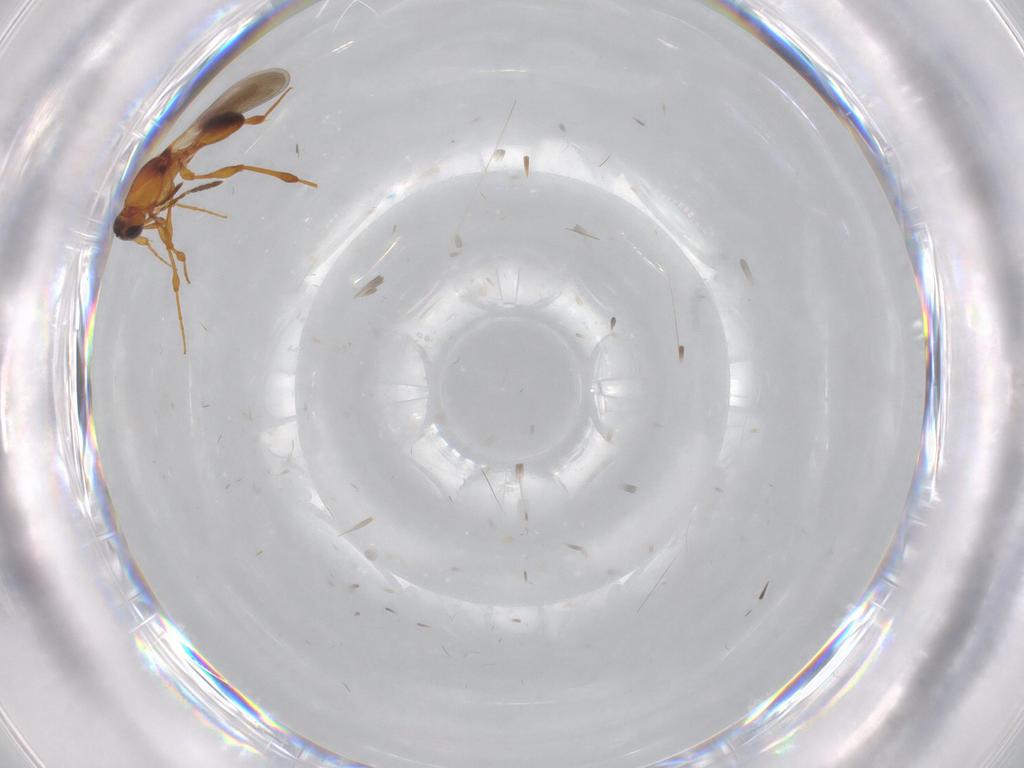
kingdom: Animalia
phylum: Arthropoda
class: Insecta
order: Hymenoptera
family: Platygastridae
